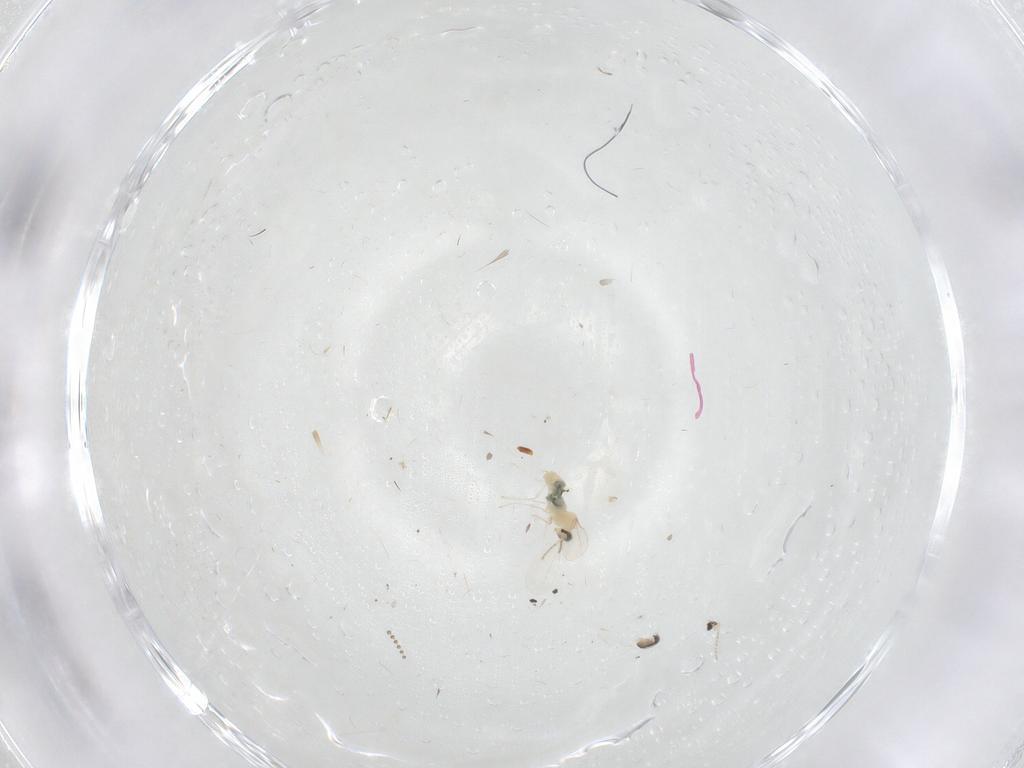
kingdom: Animalia
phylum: Arthropoda
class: Insecta
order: Diptera
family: Cecidomyiidae
